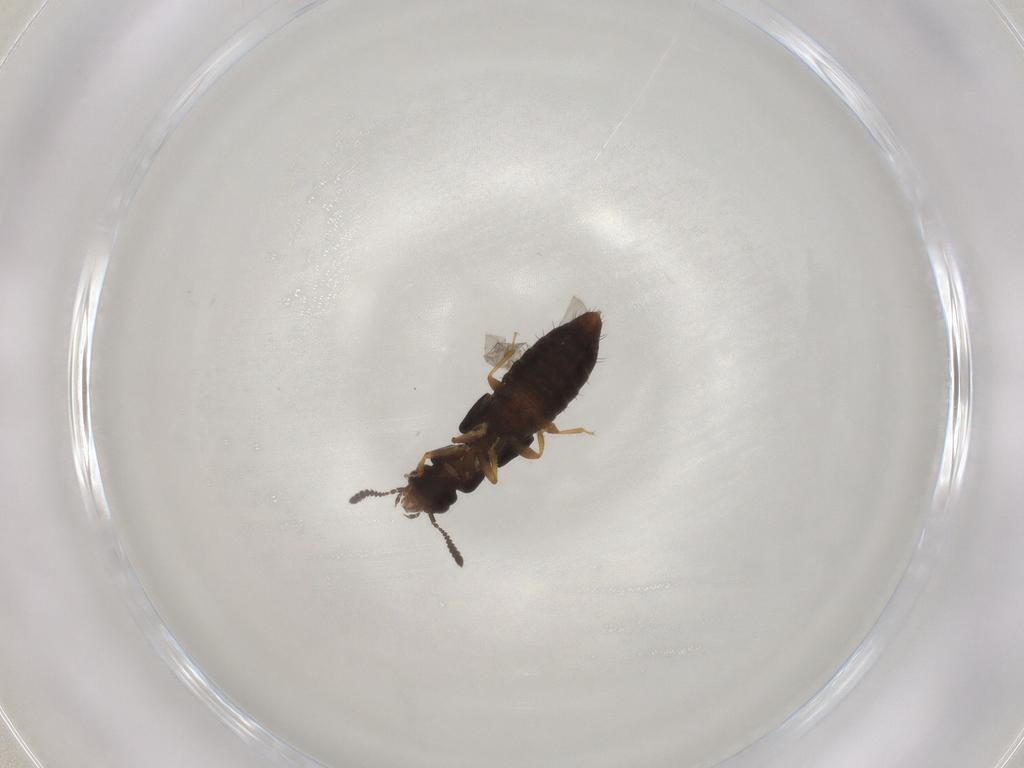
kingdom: Animalia
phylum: Arthropoda
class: Insecta
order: Coleoptera
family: Staphylinidae
